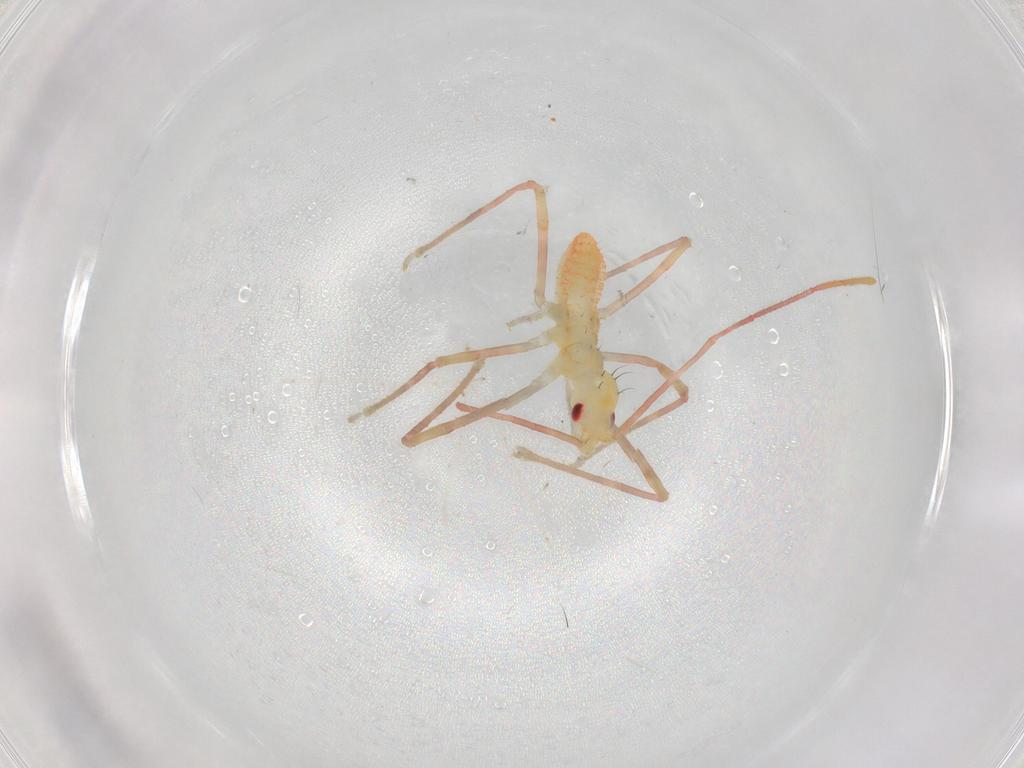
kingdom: Animalia
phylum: Arthropoda
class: Insecta
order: Hemiptera
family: Reduviidae
